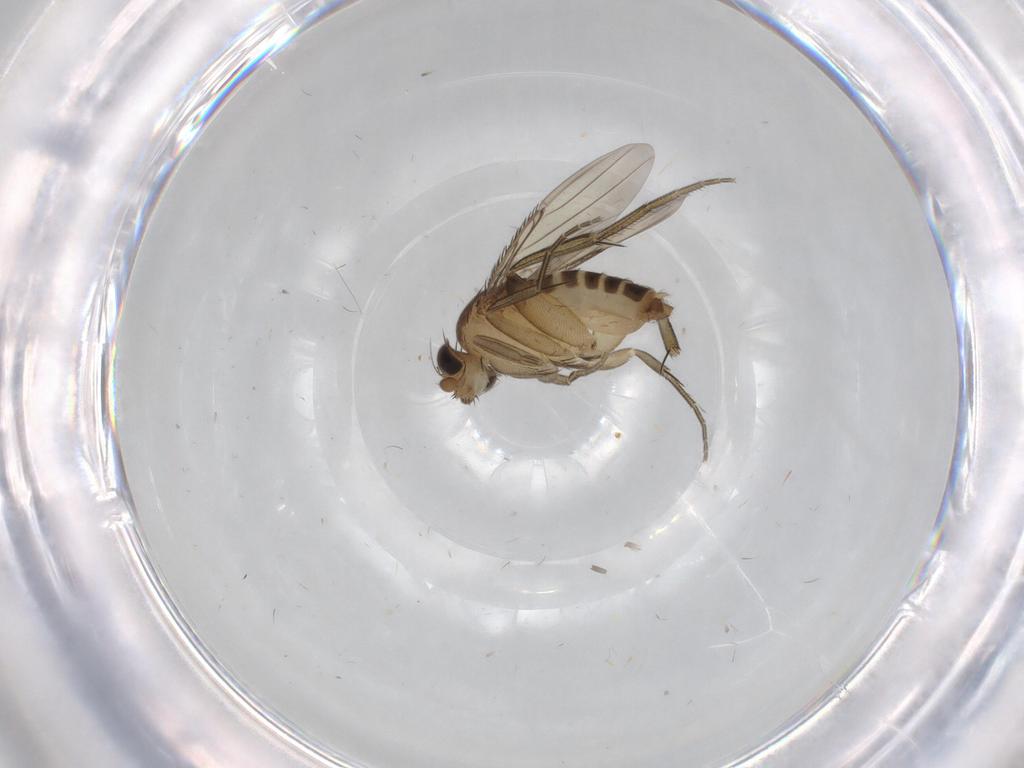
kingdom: Animalia
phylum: Arthropoda
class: Insecta
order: Diptera
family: Phoridae
